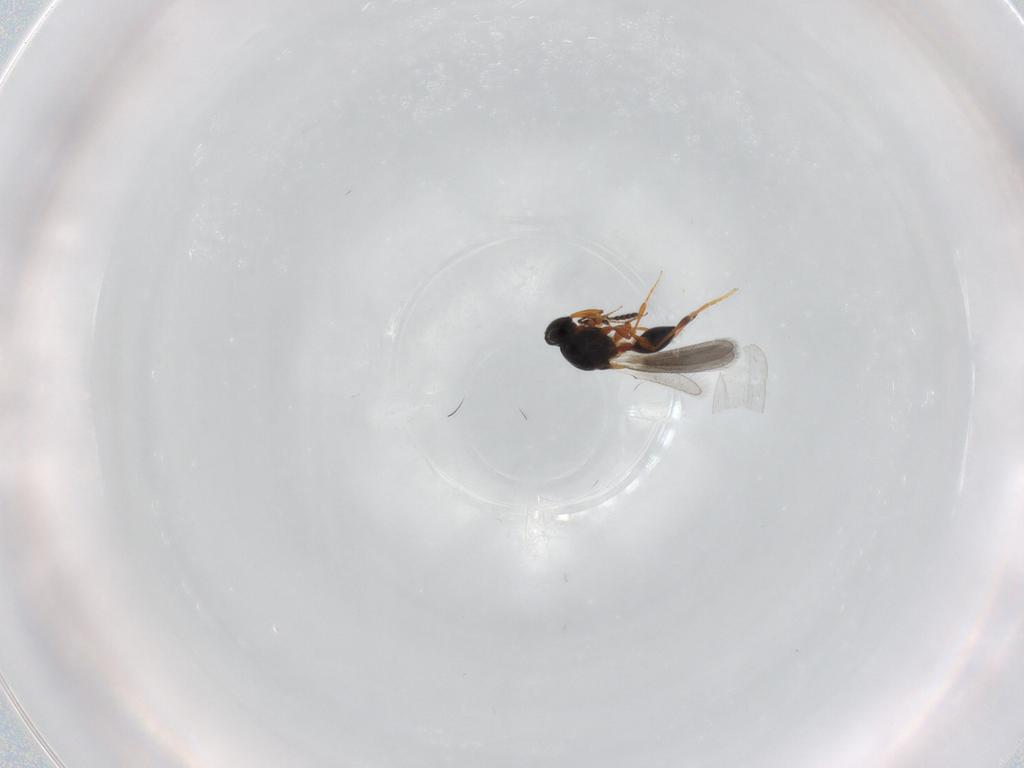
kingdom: Animalia
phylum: Arthropoda
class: Insecta
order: Hymenoptera
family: Platygastridae
